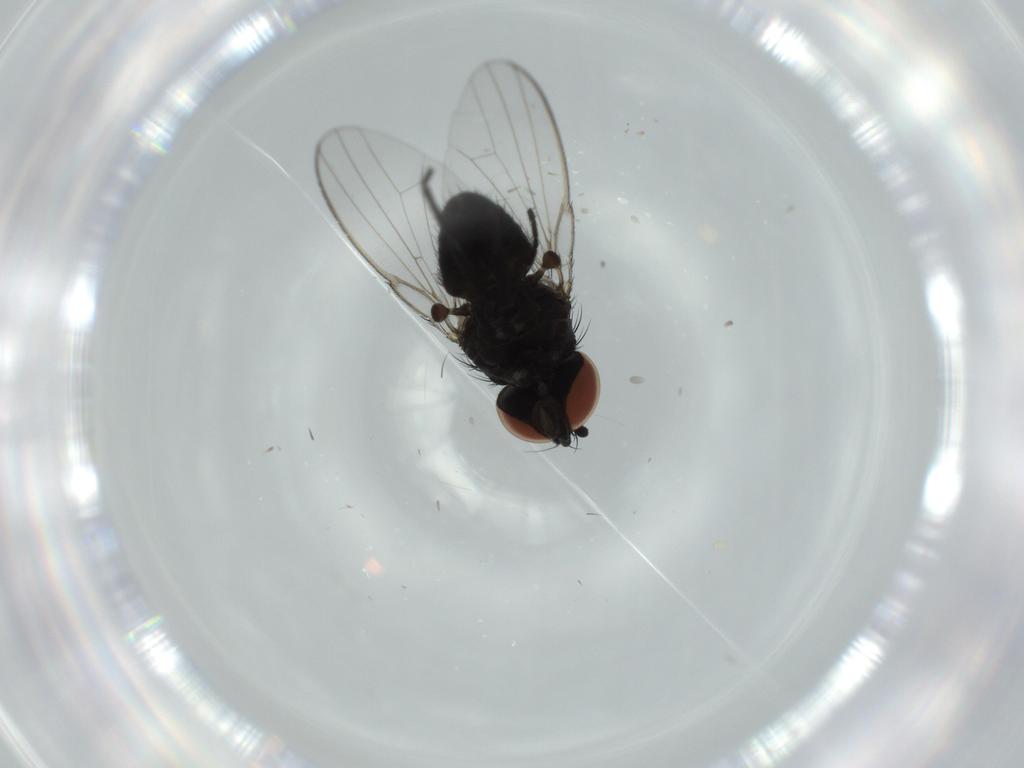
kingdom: Animalia
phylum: Arthropoda
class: Insecta
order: Diptera
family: Milichiidae
